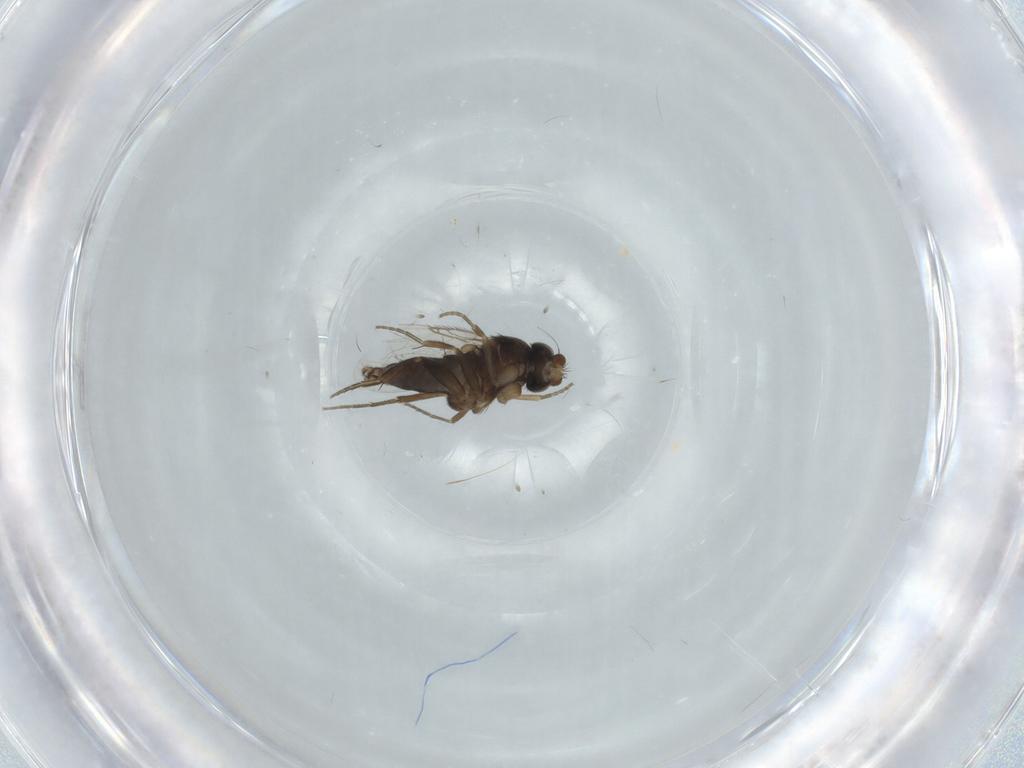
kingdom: Animalia
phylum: Arthropoda
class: Insecta
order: Diptera
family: Phoridae
